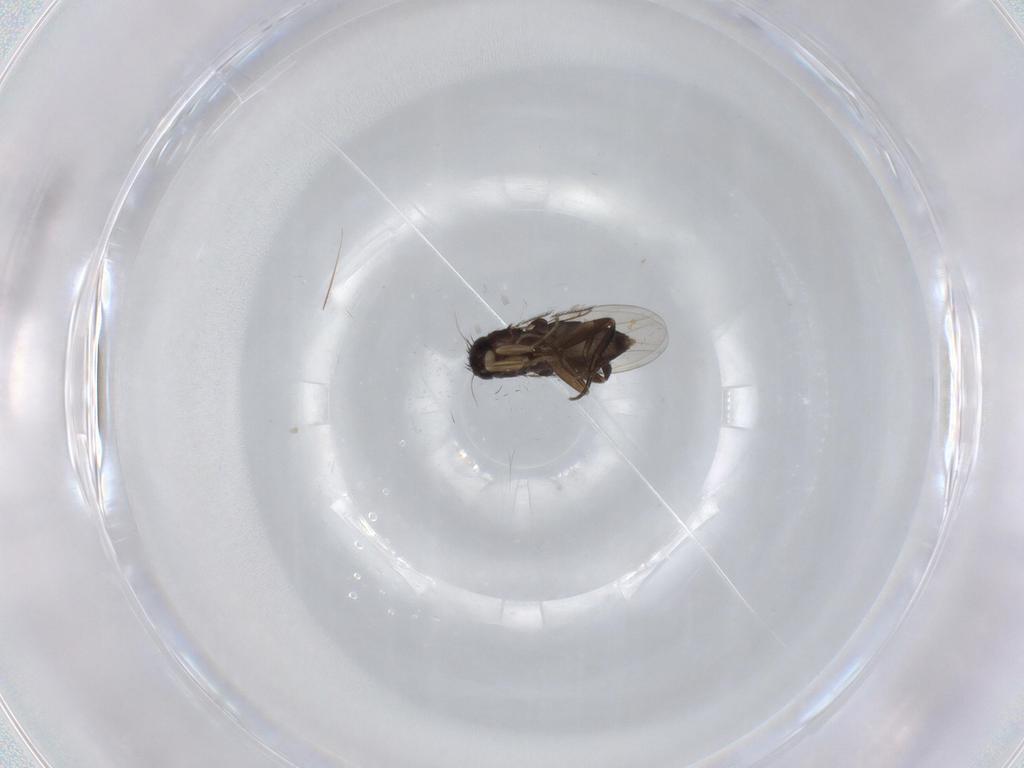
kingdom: Animalia
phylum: Arthropoda
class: Insecta
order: Diptera
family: Phoridae
